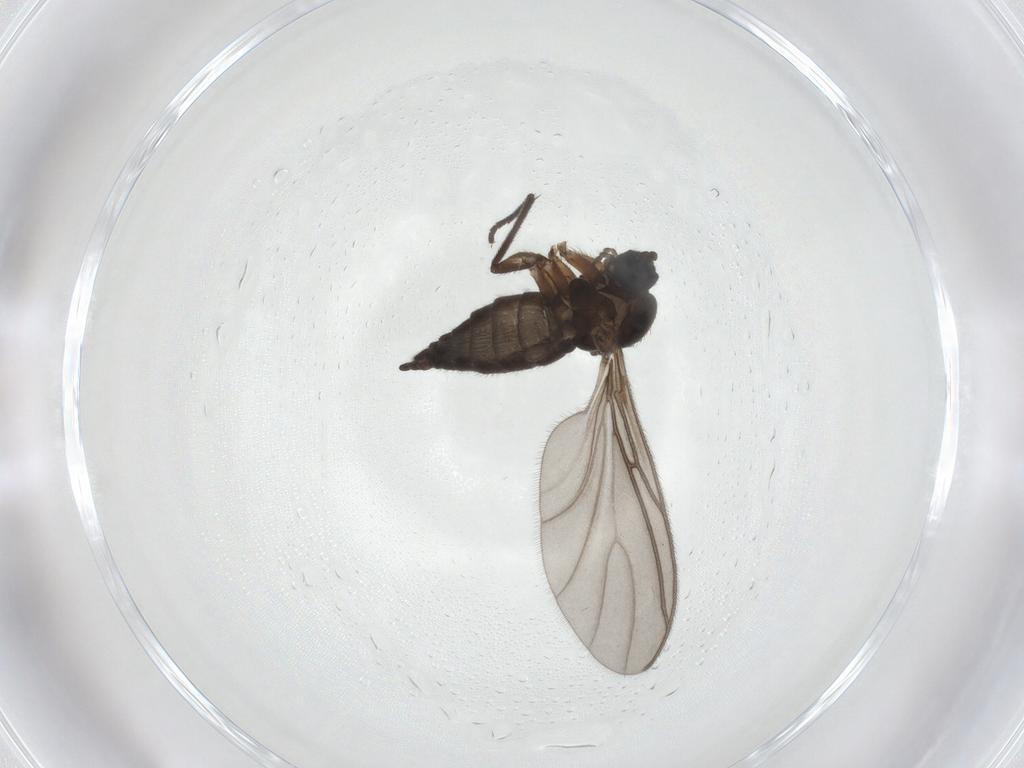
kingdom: Animalia
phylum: Arthropoda
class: Insecta
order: Diptera
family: Sciaridae
